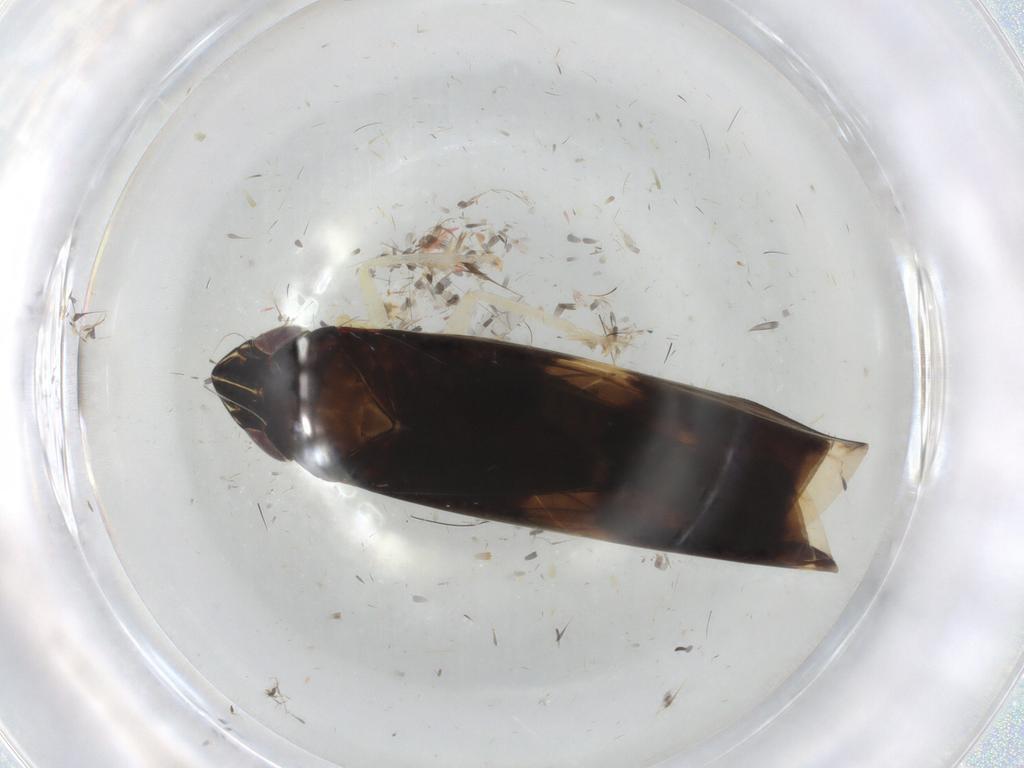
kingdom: Animalia
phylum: Arthropoda
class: Insecta
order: Hemiptera
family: Cicadellidae
